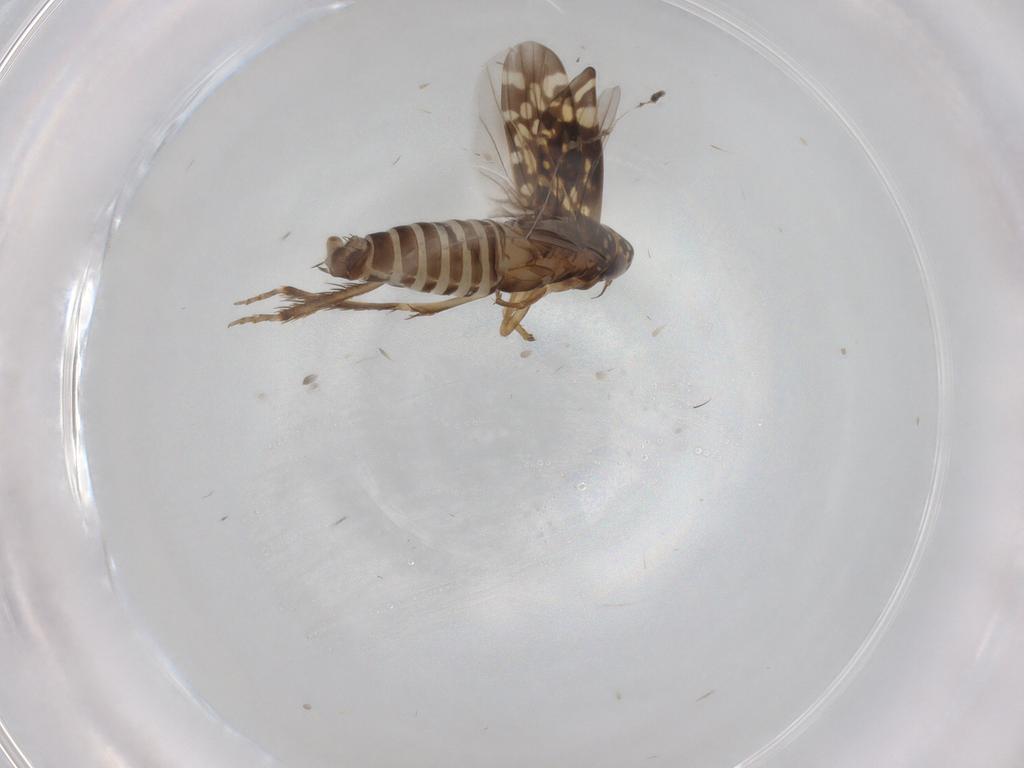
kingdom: Animalia
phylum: Arthropoda
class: Insecta
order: Hemiptera
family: Cicadellidae
